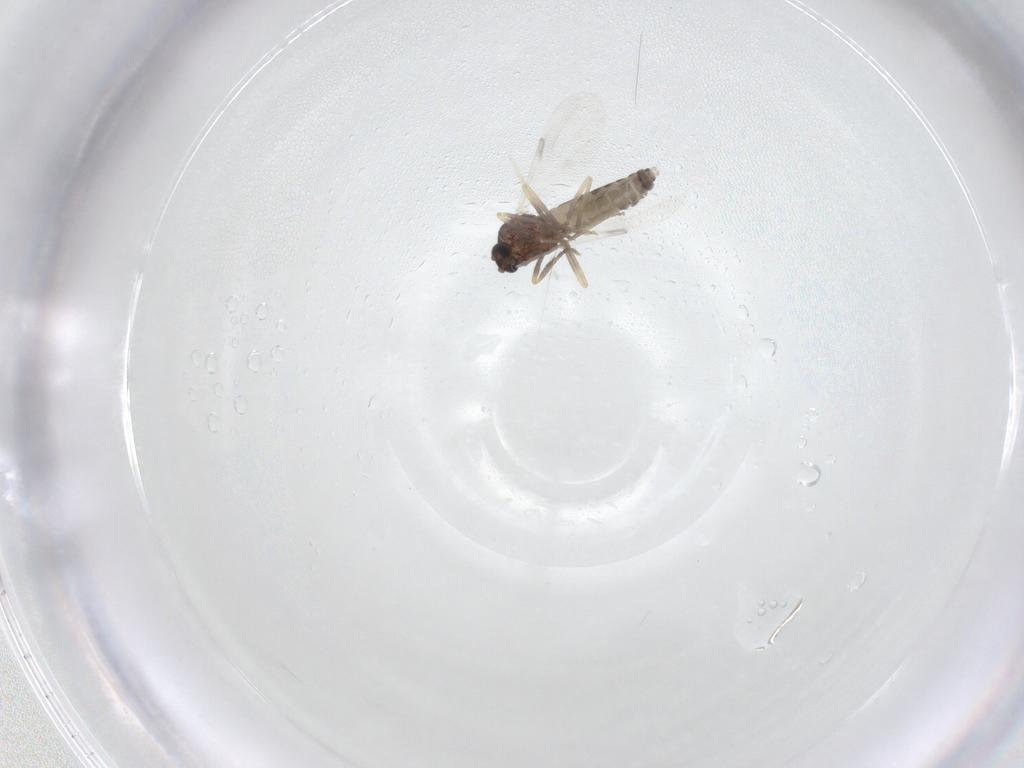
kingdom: Animalia
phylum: Arthropoda
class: Insecta
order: Diptera
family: Ceratopogonidae
